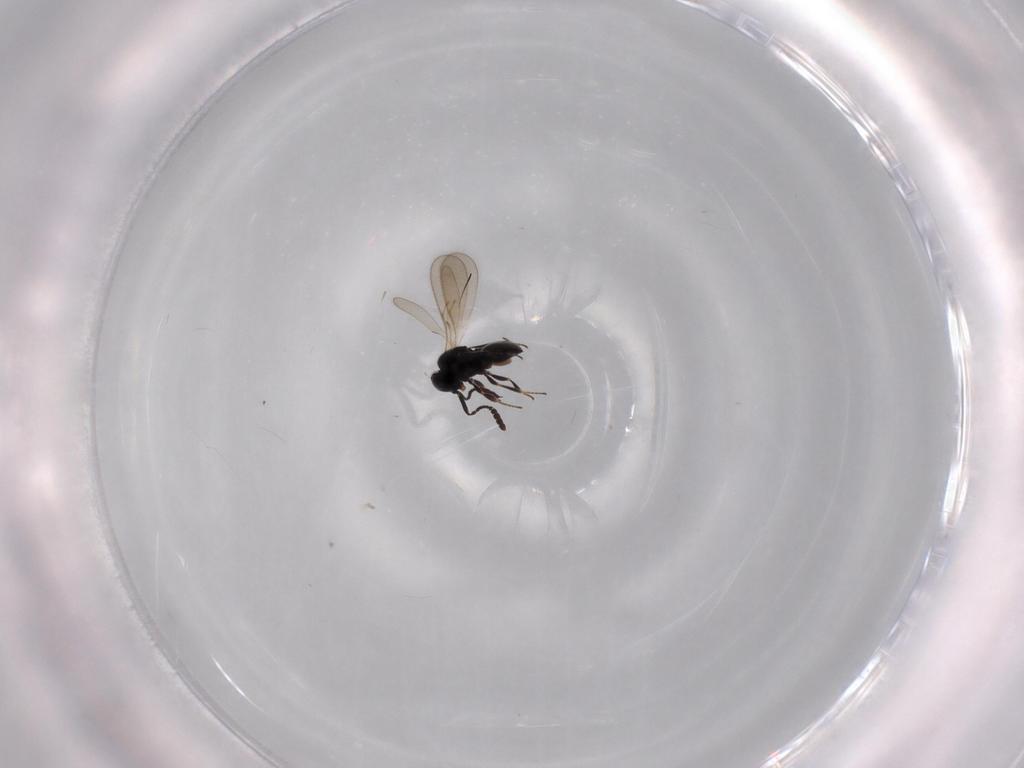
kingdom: Animalia
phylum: Arthropoda
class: Insecta
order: Hymenoptera
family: Scelionidae
